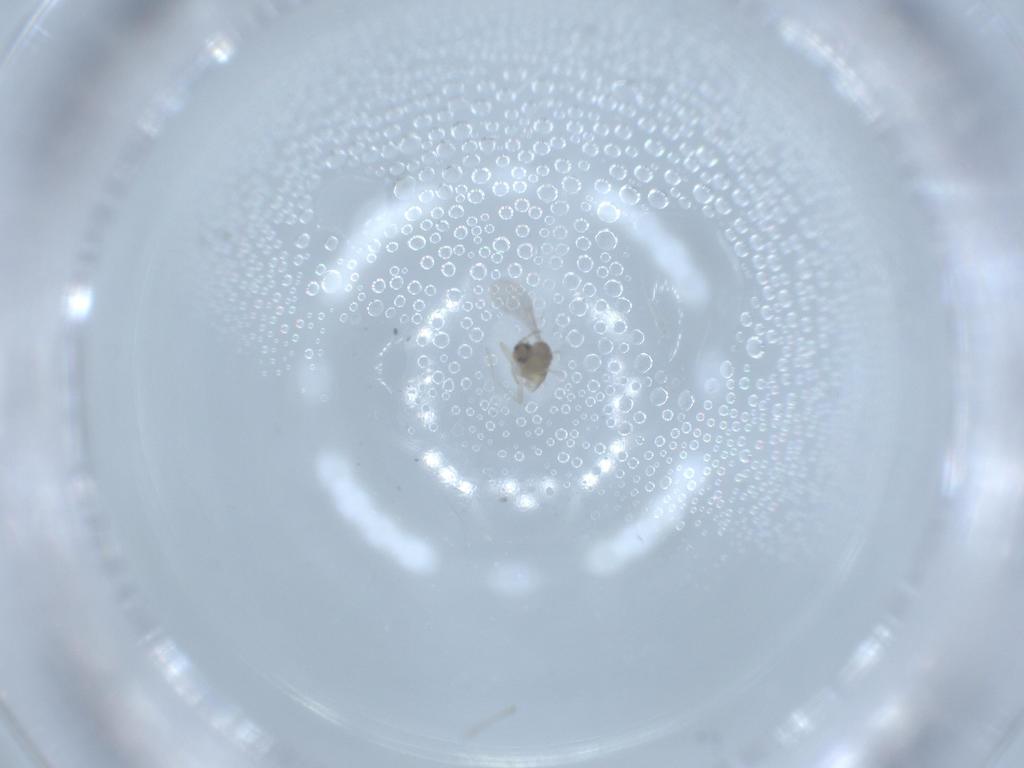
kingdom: Animalia
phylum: Arthropoda
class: Insecta
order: Diptera
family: Cecidomyiidae
